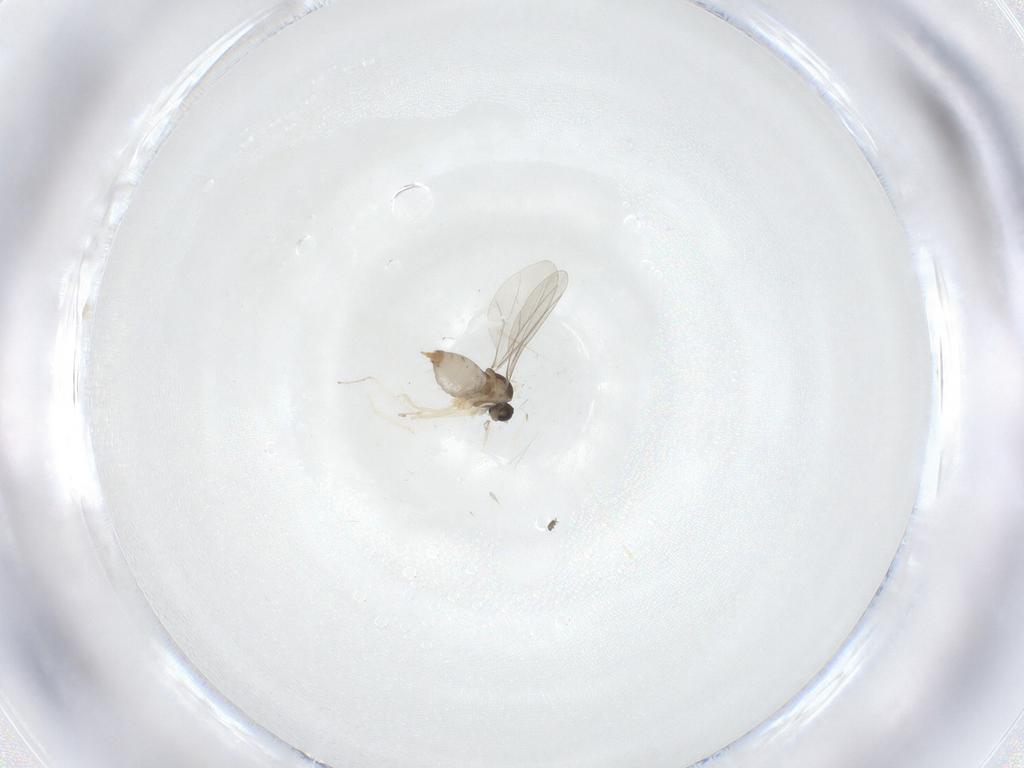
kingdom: Animalia
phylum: Arthropoda
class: Insecta
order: Diptera
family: Cecidomyiidae
